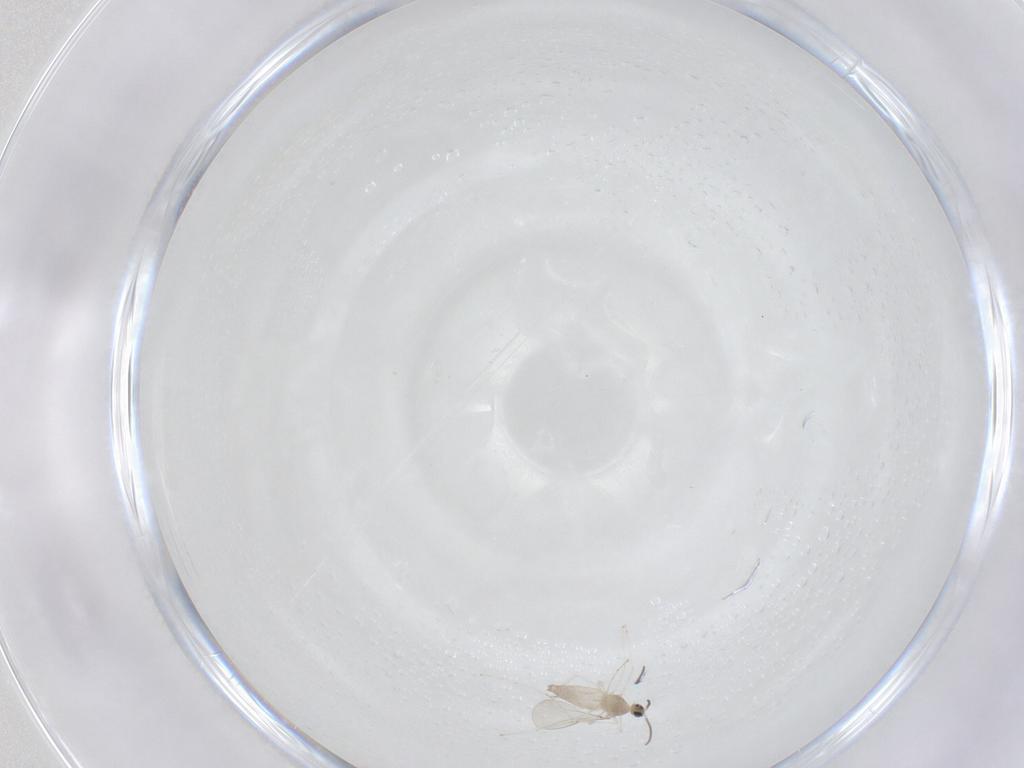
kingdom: Animalia
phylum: Arthropoda
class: Insecta
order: Diptera
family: Cecidomyiidae
